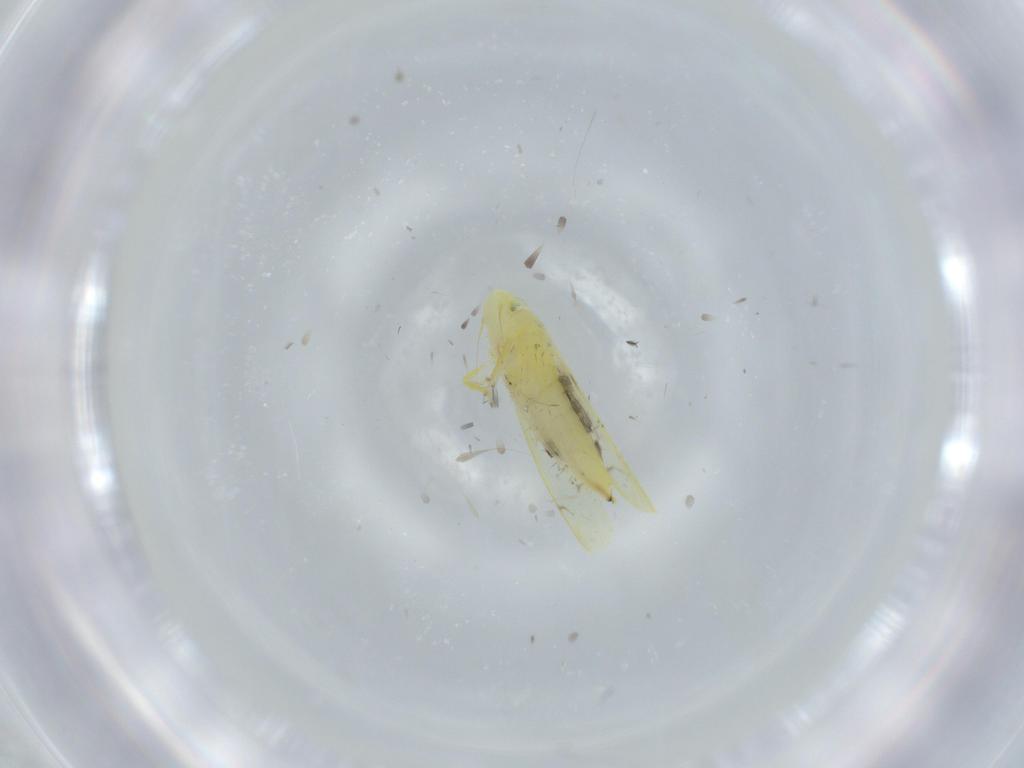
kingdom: Animalia
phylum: Arthropoda
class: Insecta
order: Hemiptera
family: Cicadellidae
